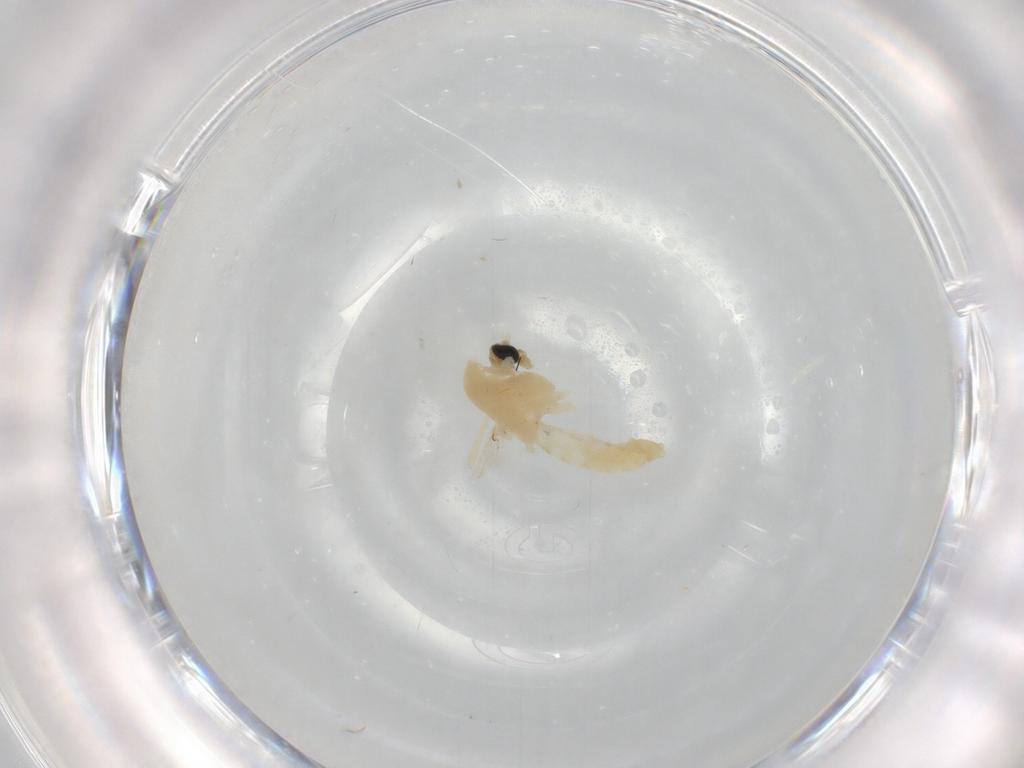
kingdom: Animalia
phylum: Arthropoda
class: Insecta
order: Diptera
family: Chironomidae
